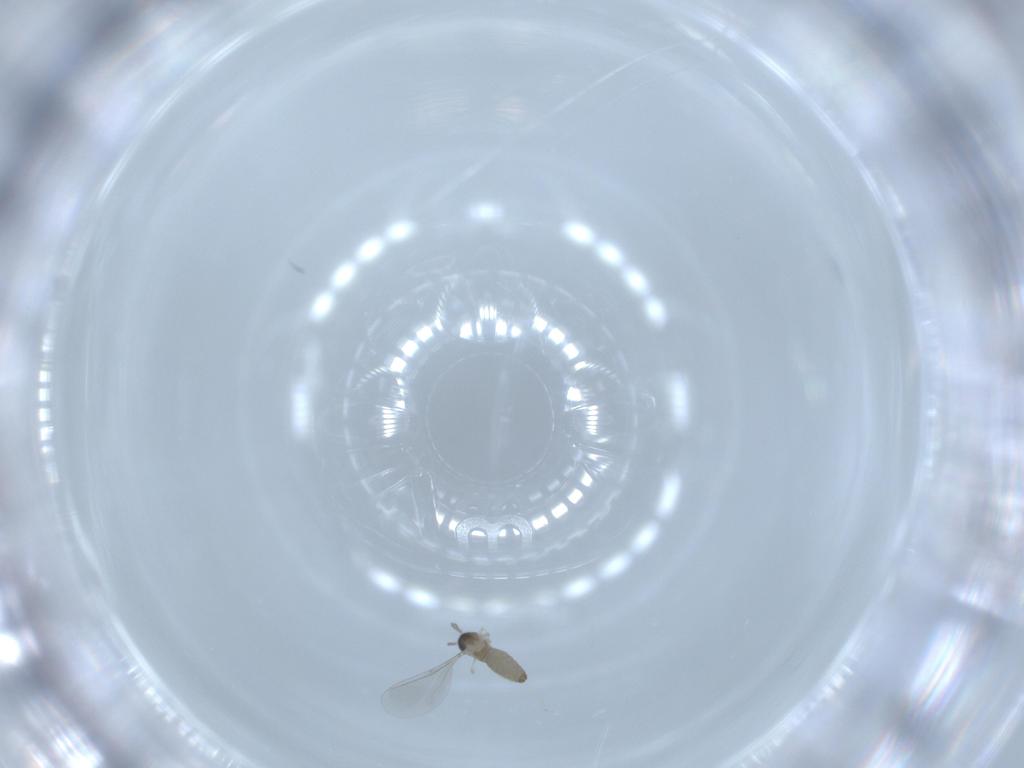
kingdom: Animalia
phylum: Arthropoda
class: Insecta
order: Diptera
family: Cecidomyiidae
